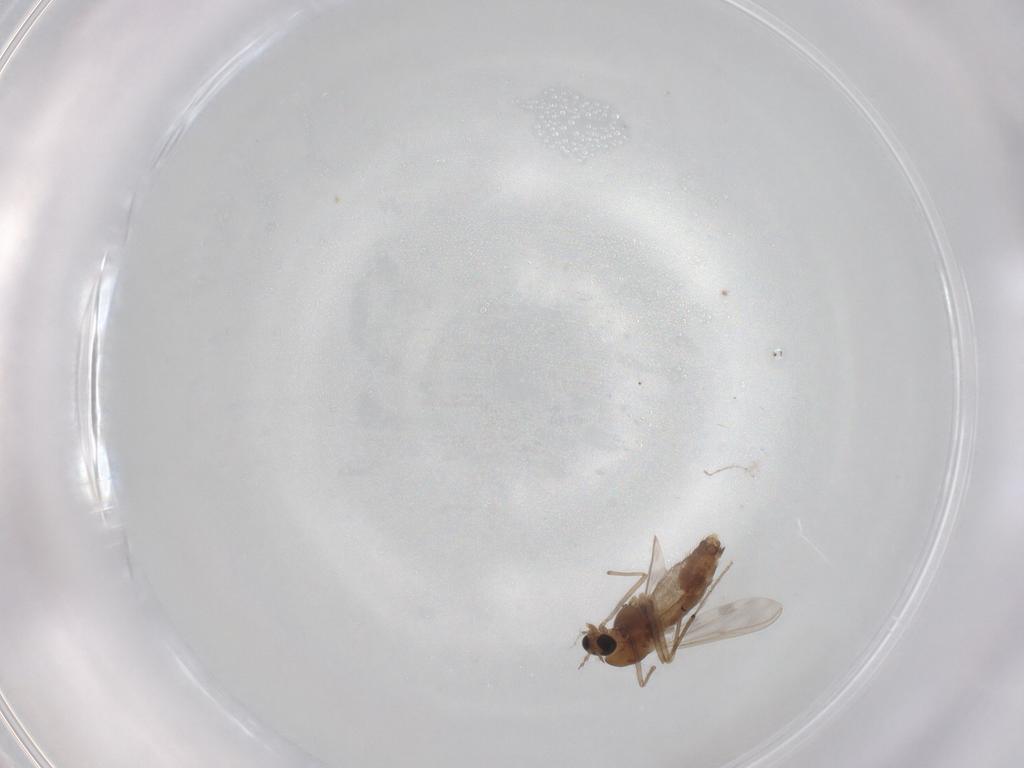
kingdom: Animalia
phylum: Arthropoda
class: Insecta
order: Diptera
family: Chironomidae
